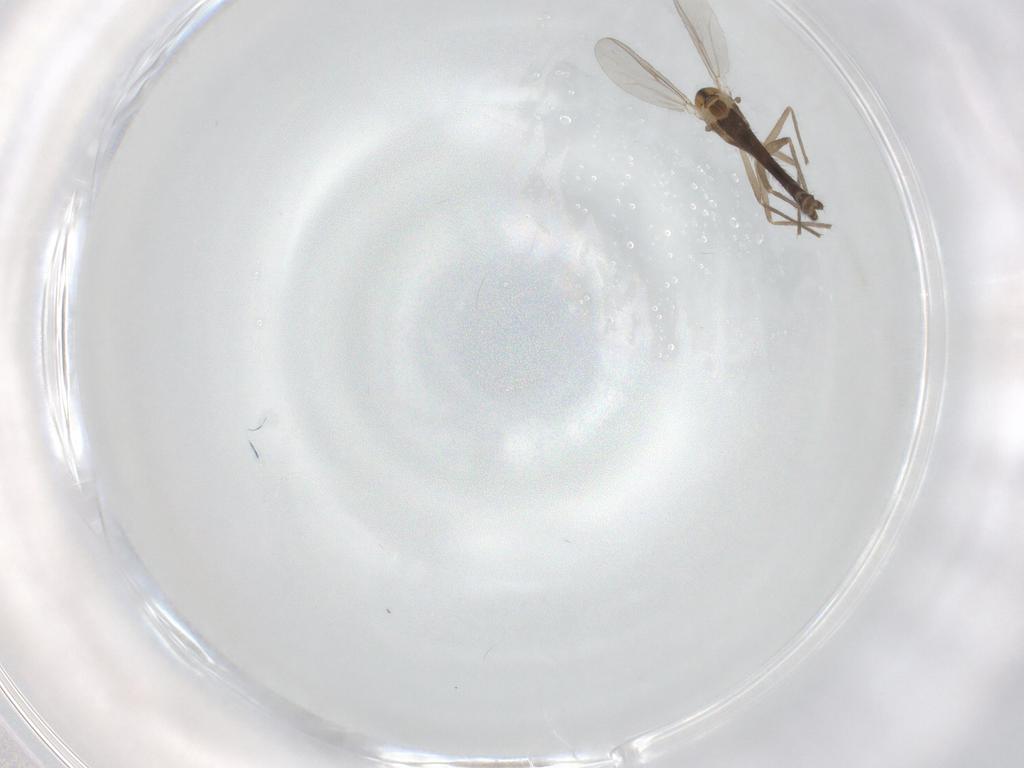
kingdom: Animalia
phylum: Arthropoda
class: Insecta
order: Diptera
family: Chironomidae
